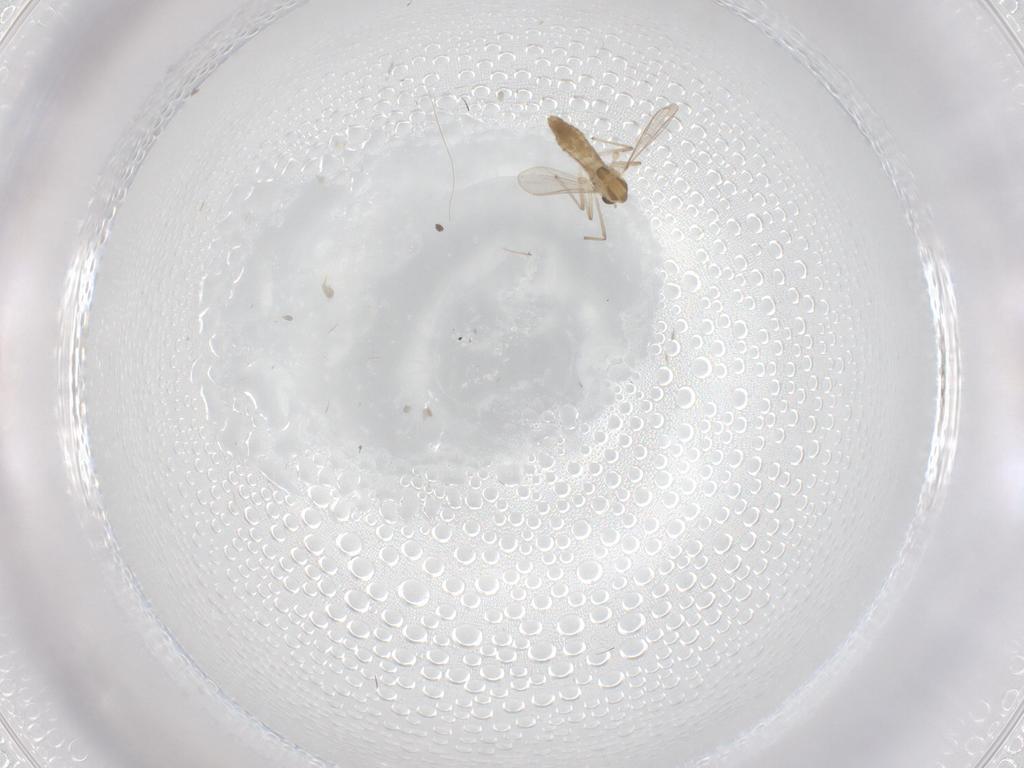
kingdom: Animalia
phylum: Arthropoda
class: Insecta
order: Diptera
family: Chironomidae
